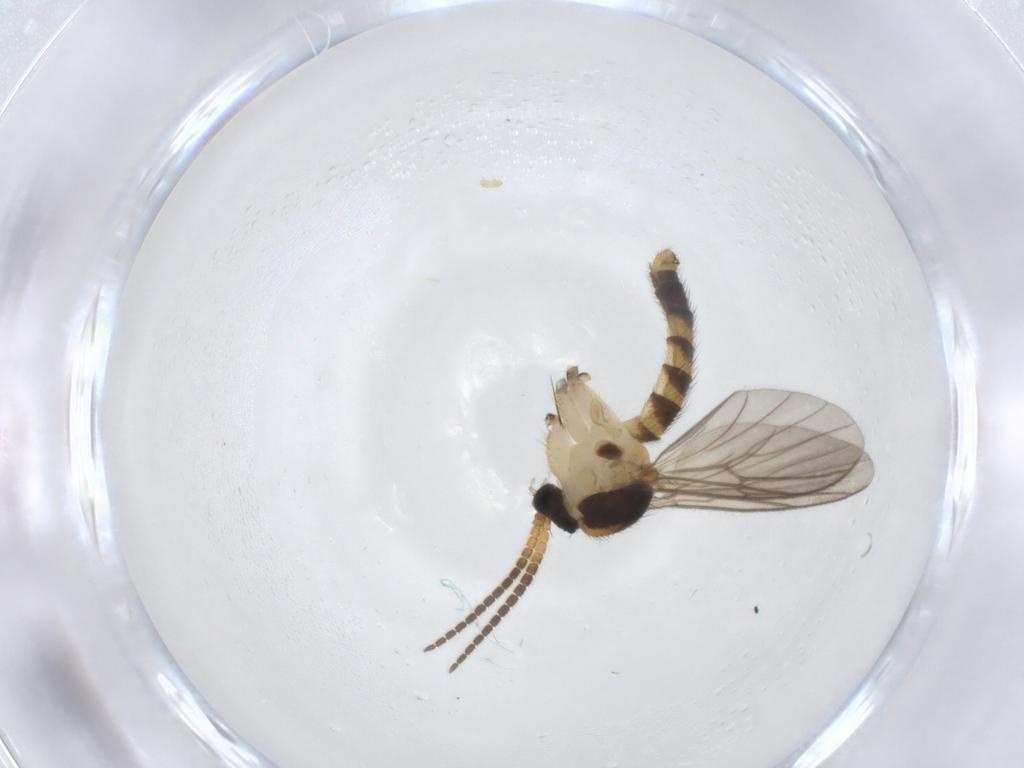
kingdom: Animalia
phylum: Arthropoda
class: Insecta
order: Diptera
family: Mycetophilidae
